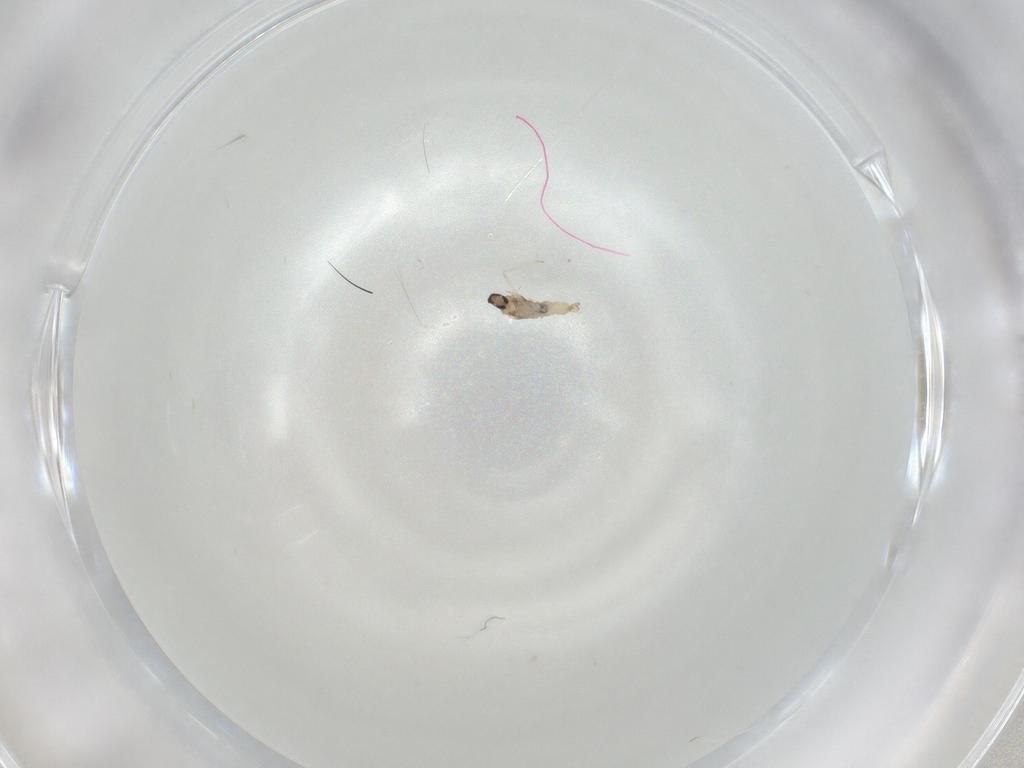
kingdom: Animalia
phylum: Arthropoda
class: Insecta
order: Diptera
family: Cecidomyiidae
